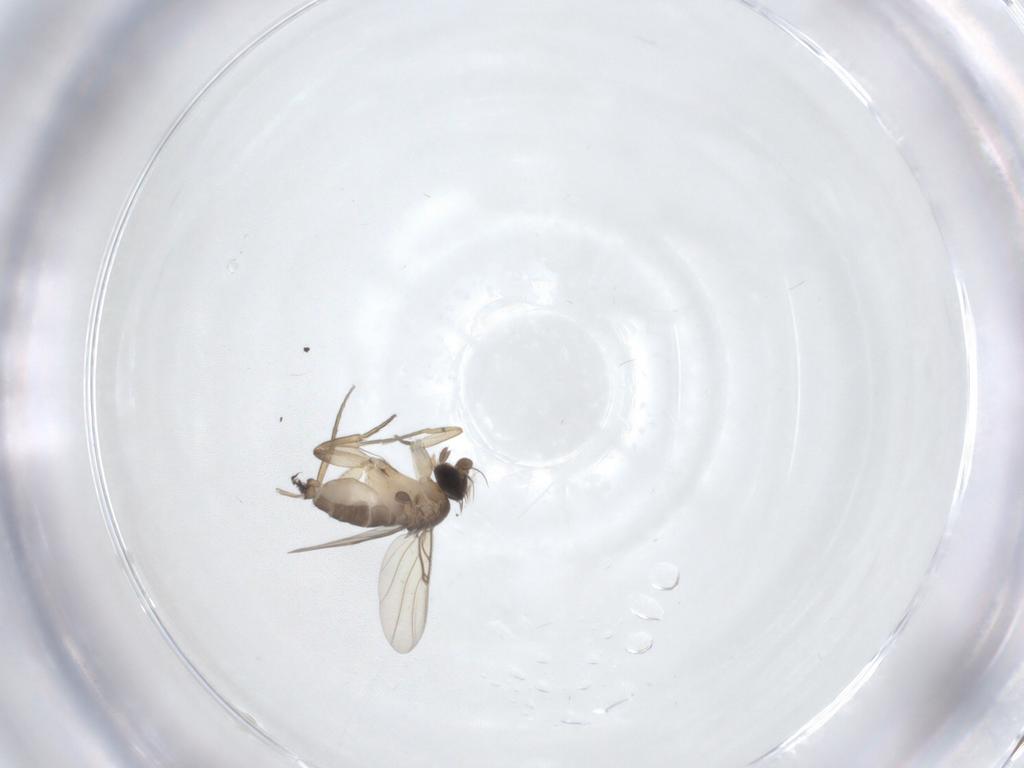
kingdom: Animalia
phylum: Arthropoda
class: Insecta
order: Diptera
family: Phoridae
